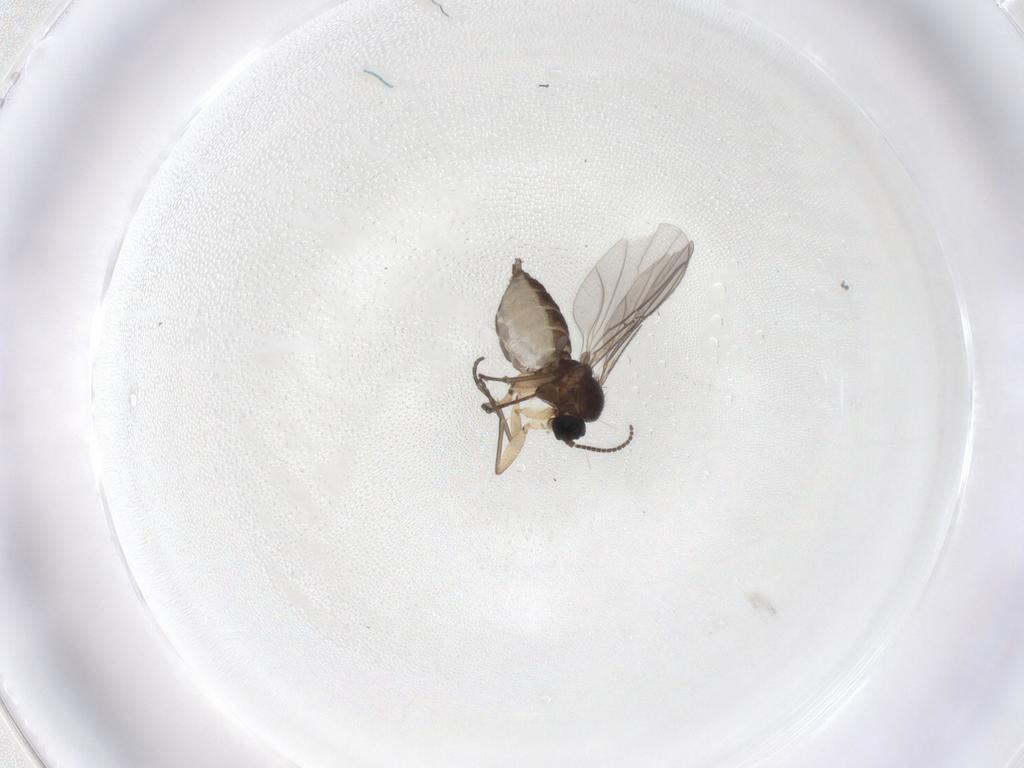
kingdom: Animalia
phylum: Arthropoda
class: Insecta
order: Diptera
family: Sciaridae
